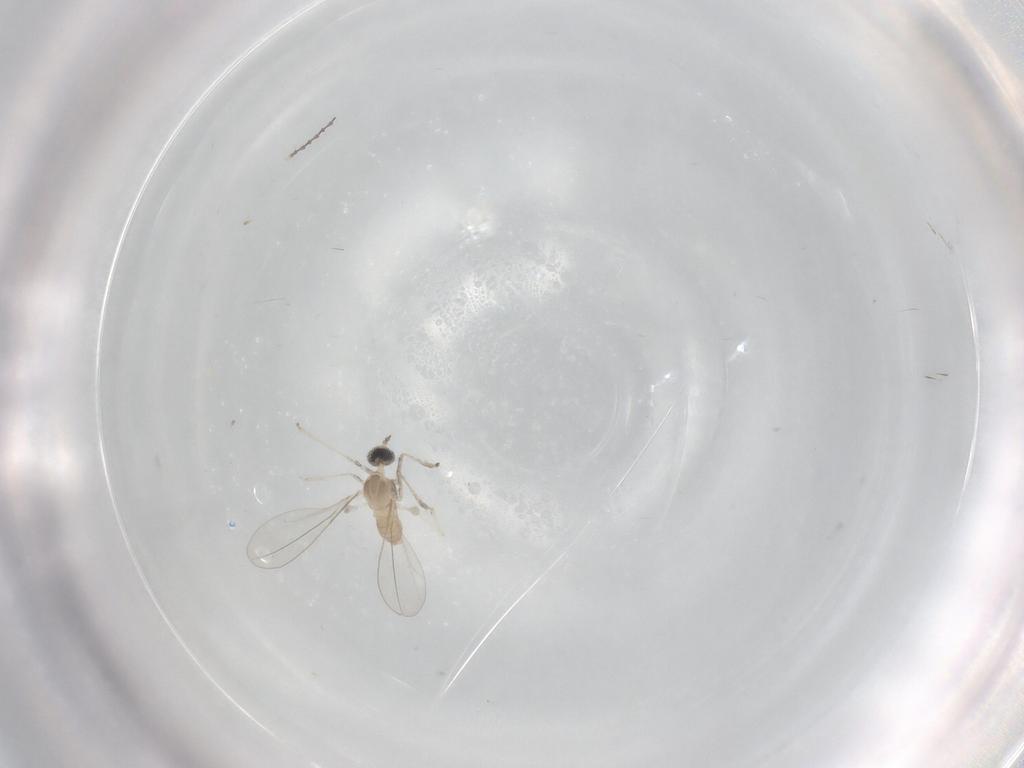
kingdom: Animalia
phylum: Arthropoda
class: Insecta
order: Diptera
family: Cecidomyiidae
